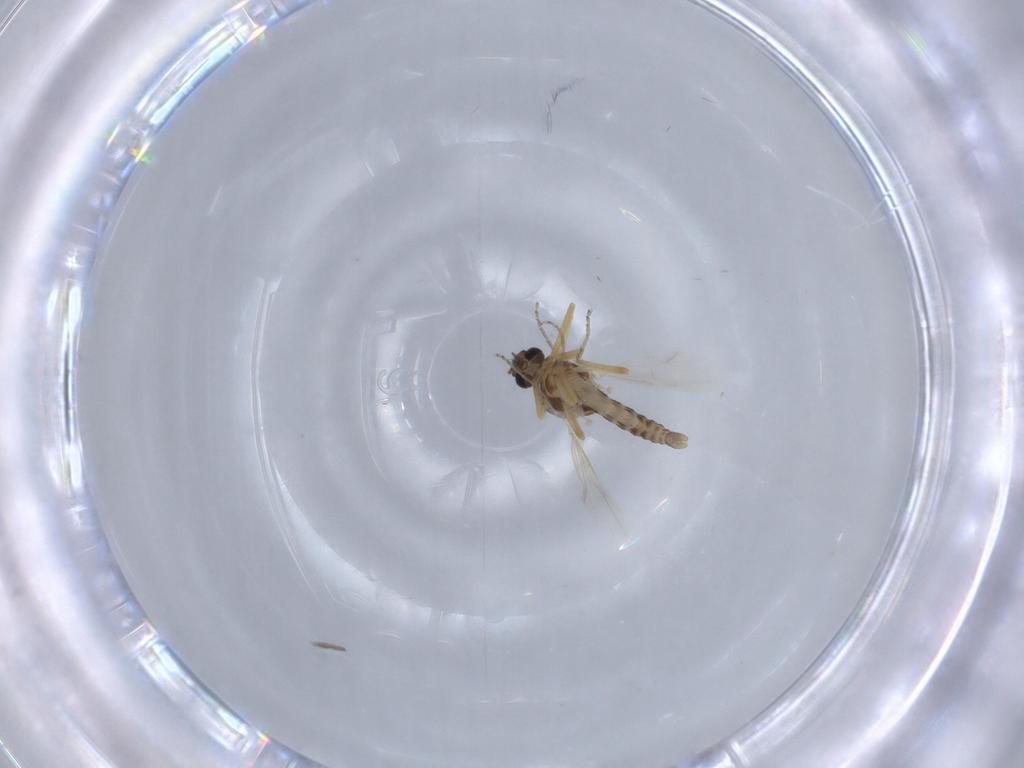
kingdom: Animalia
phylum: Arthropoda
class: Insecta
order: Diptera
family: Ceratopogonidae
